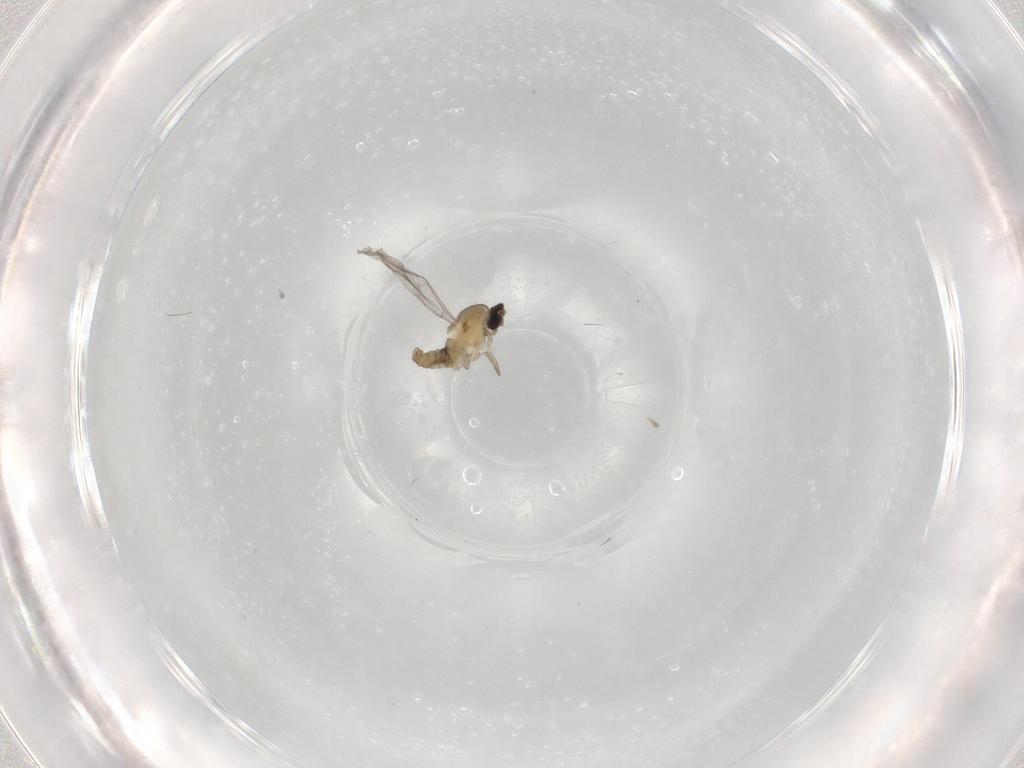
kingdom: Animalia
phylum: Arthropoda
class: Insecta
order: Diptera
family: Cecidomyiidae
